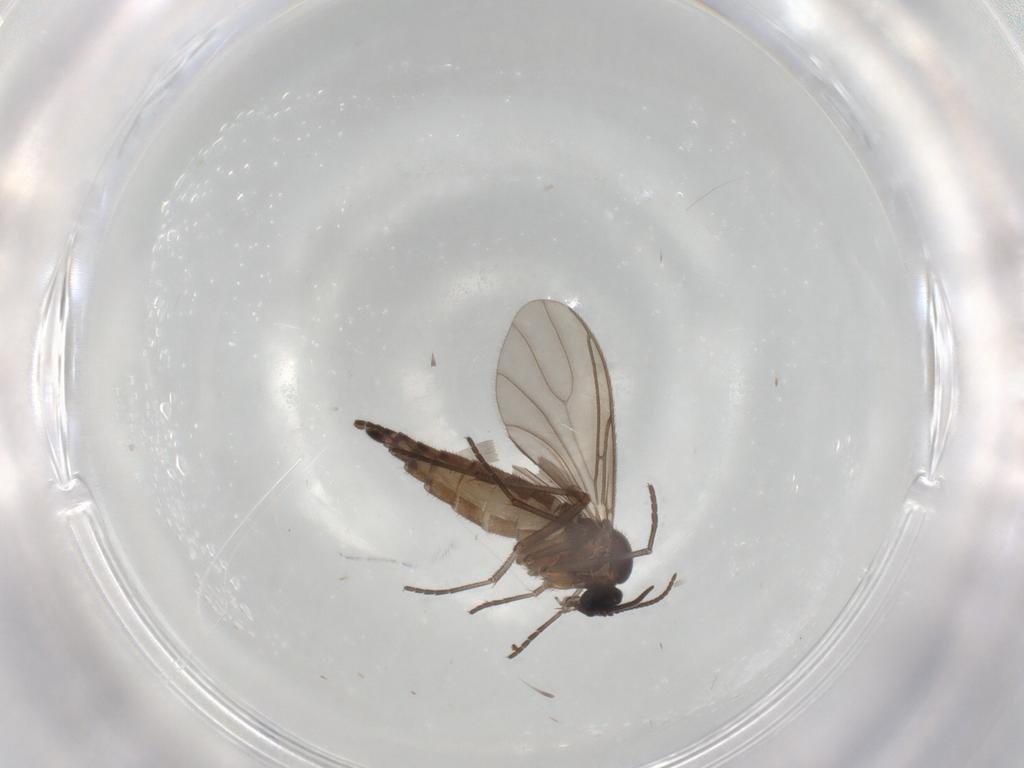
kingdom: Animalia
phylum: Arthropoda
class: Insecta
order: Diptera
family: Sciaridae
